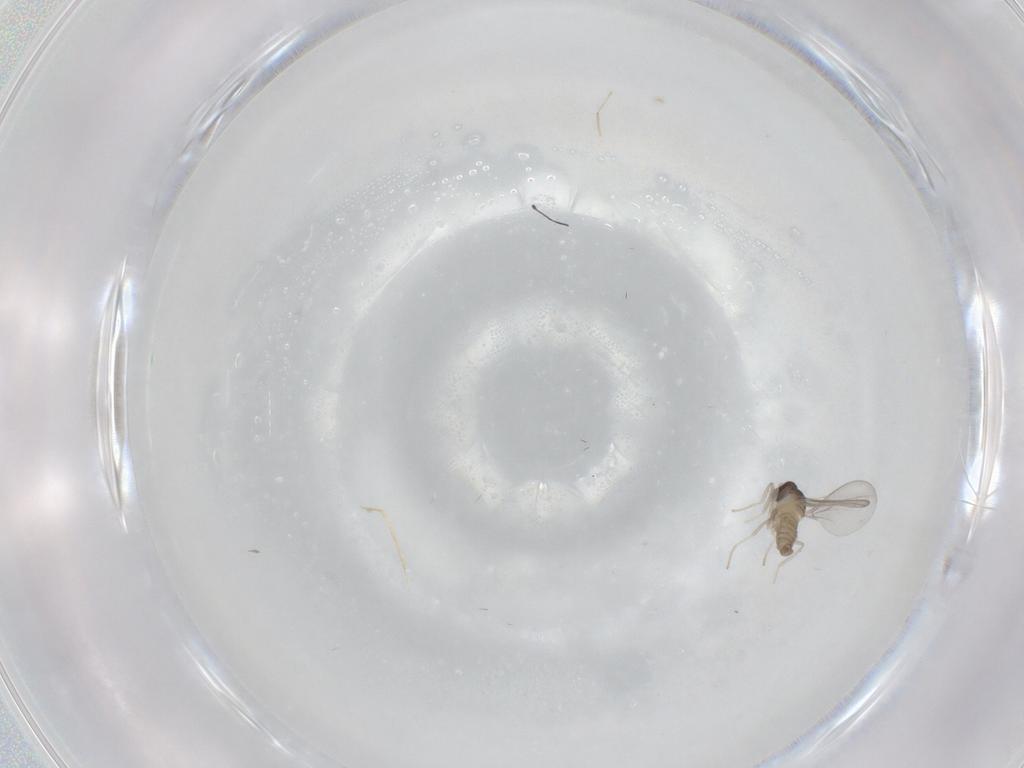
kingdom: Animalia
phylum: Arthropoda
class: Insecta
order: Diptera
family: Cecidomyiidae
